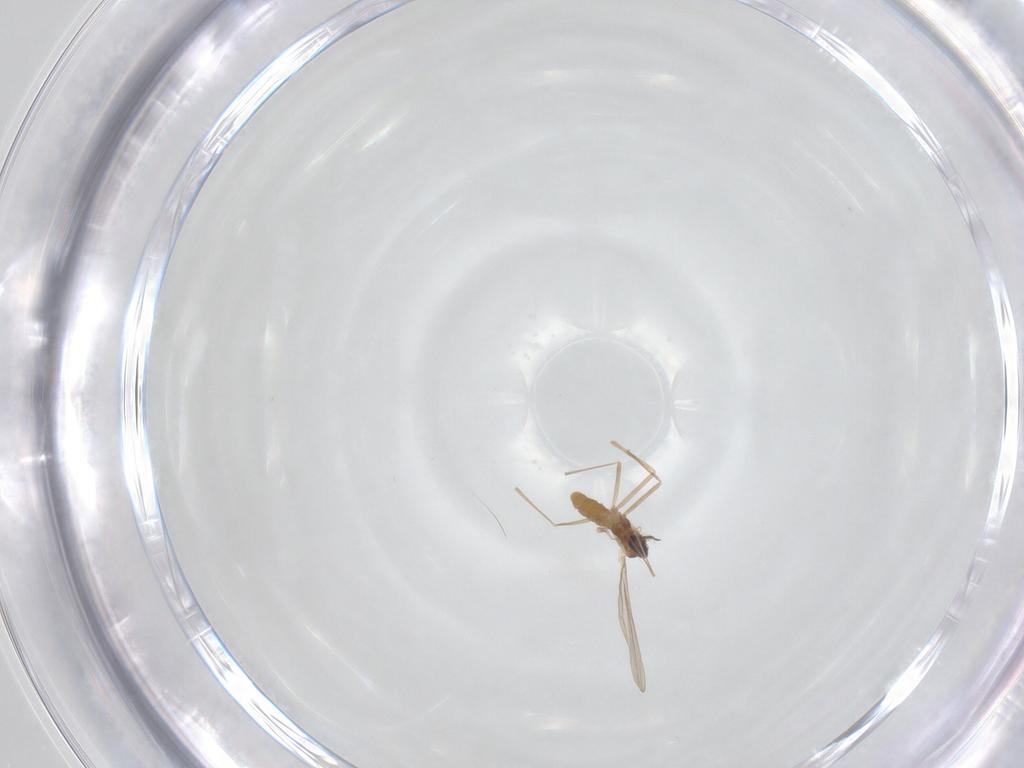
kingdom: Animalia
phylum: Arthropoda
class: Insecta
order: Diptera
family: Cecidomyiidae
